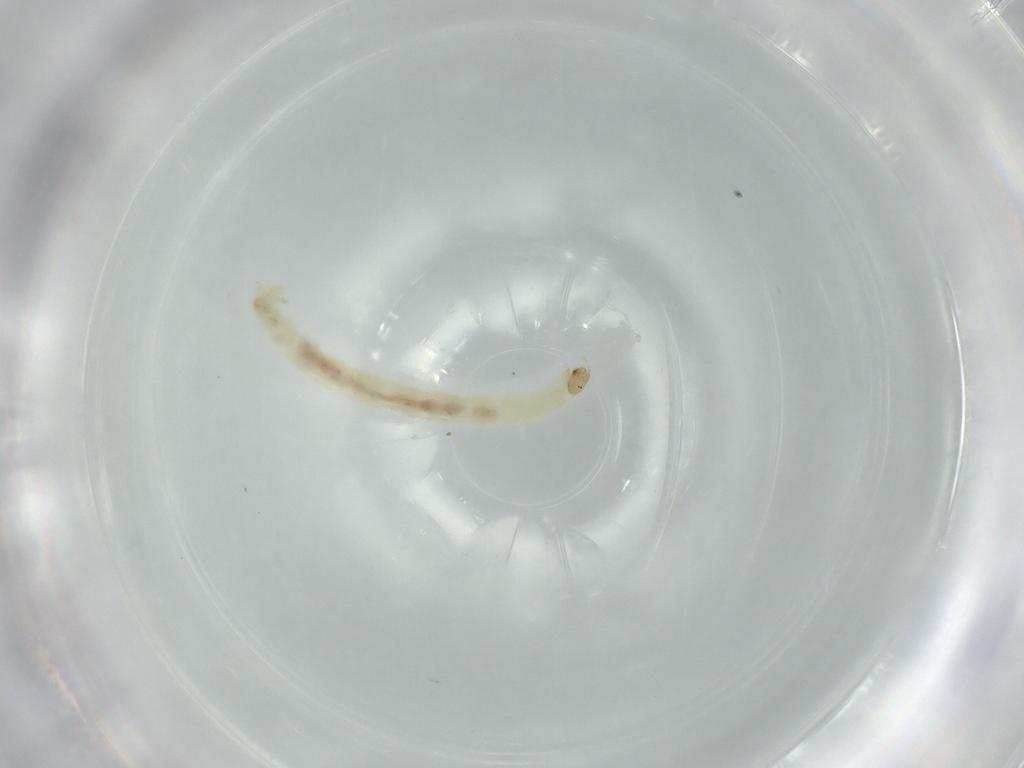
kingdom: Animalia
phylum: Arthropoda
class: Insecta
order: Diptera
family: Chironomidae
